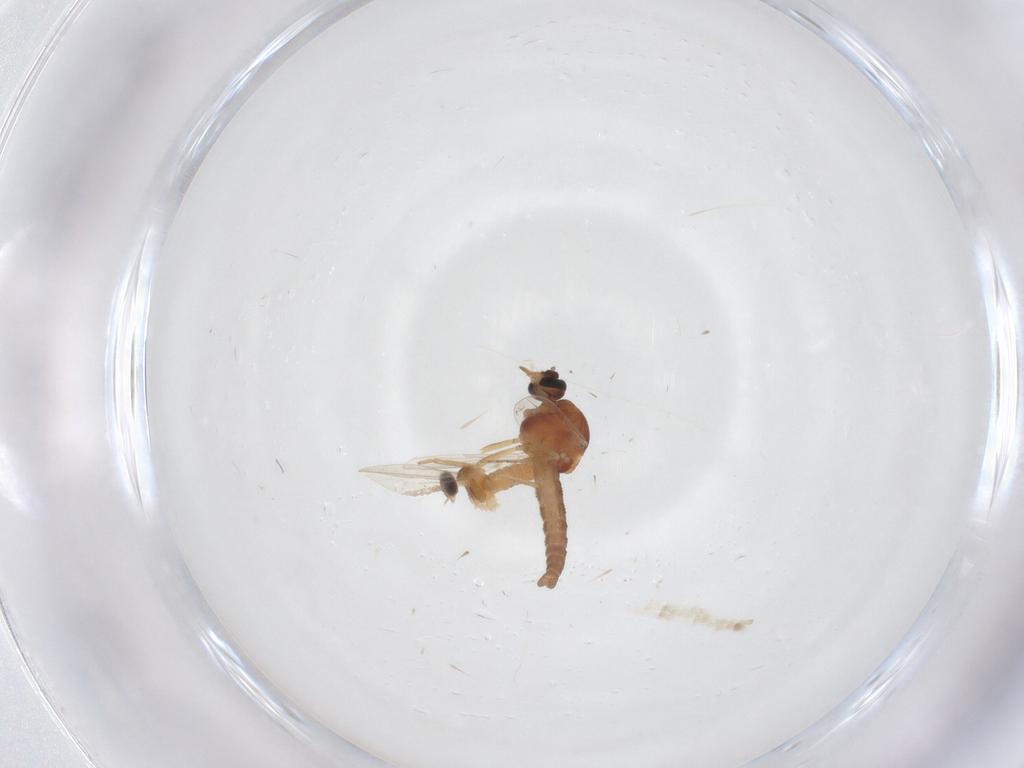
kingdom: Animalia
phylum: Arthropoda
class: Insecta
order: Diptera
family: Cecidomyiidae
